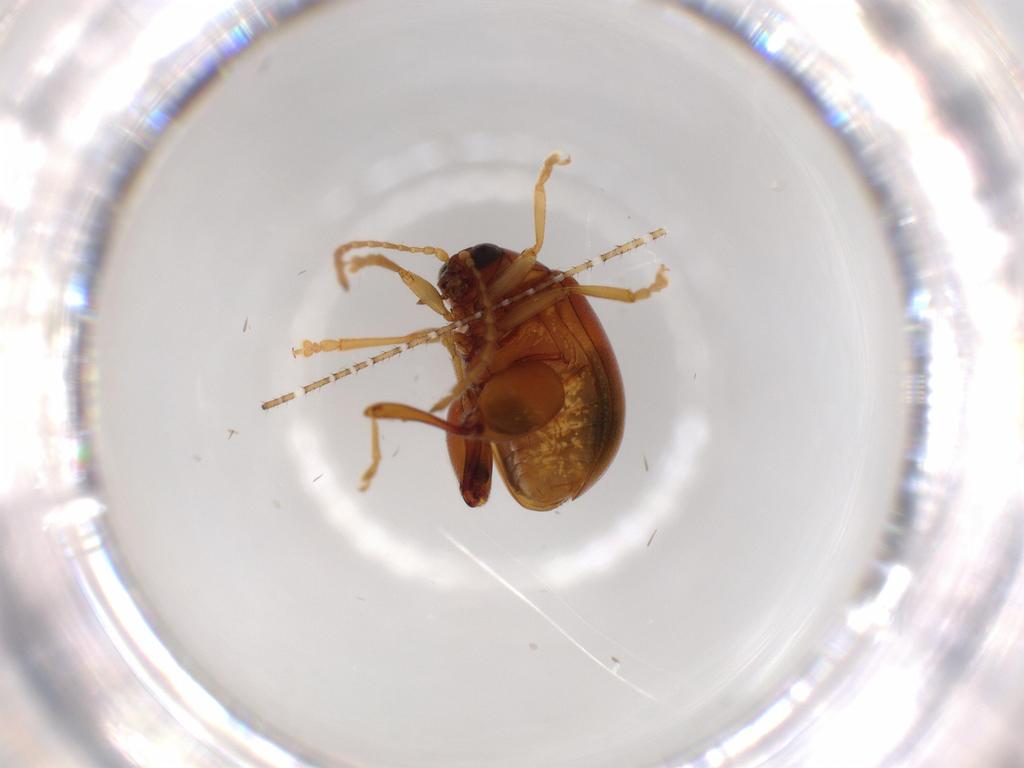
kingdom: Animalia
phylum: Arthropoda
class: Insecta
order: Coleoptera
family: Chrysomelidae
